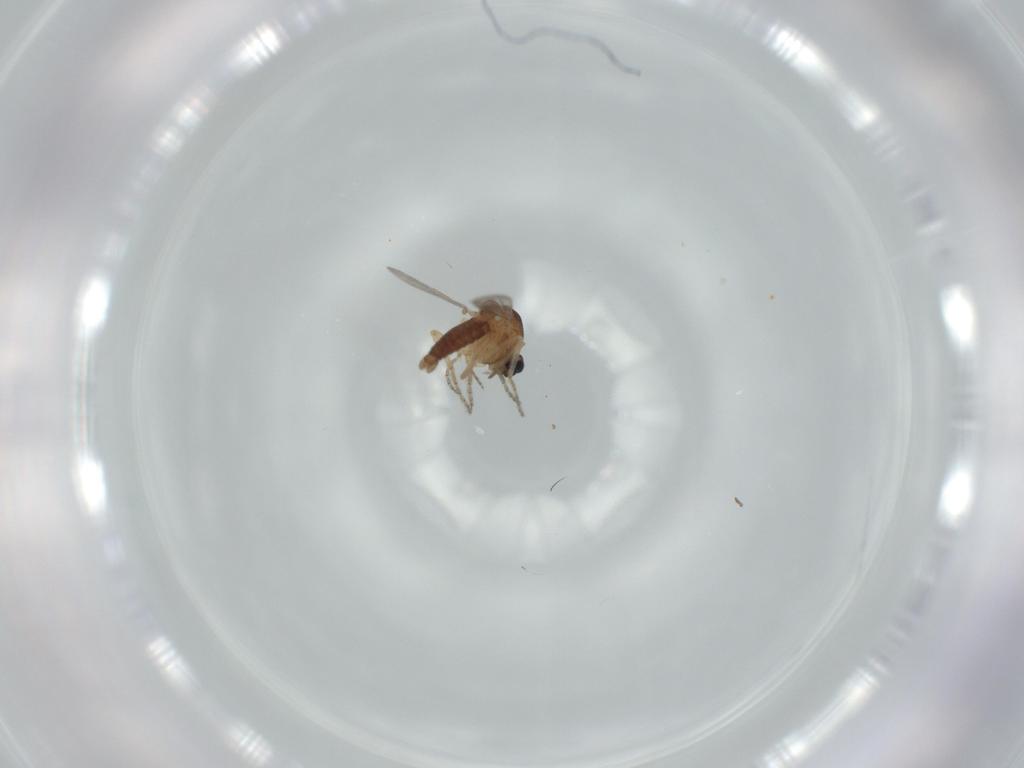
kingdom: Animalia
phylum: Arthropoda
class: Insecta
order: Diptera
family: Ceratopogonidae
